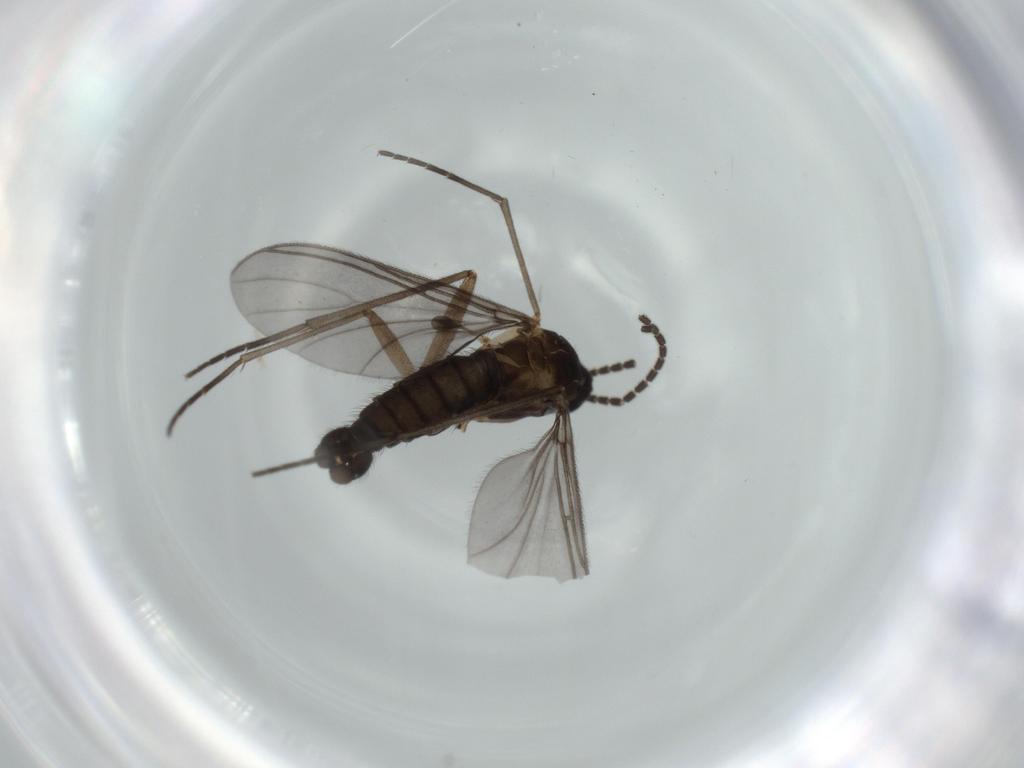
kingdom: Animalia
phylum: Arthropoda
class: Insecta
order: Diptera
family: Sciaridae
